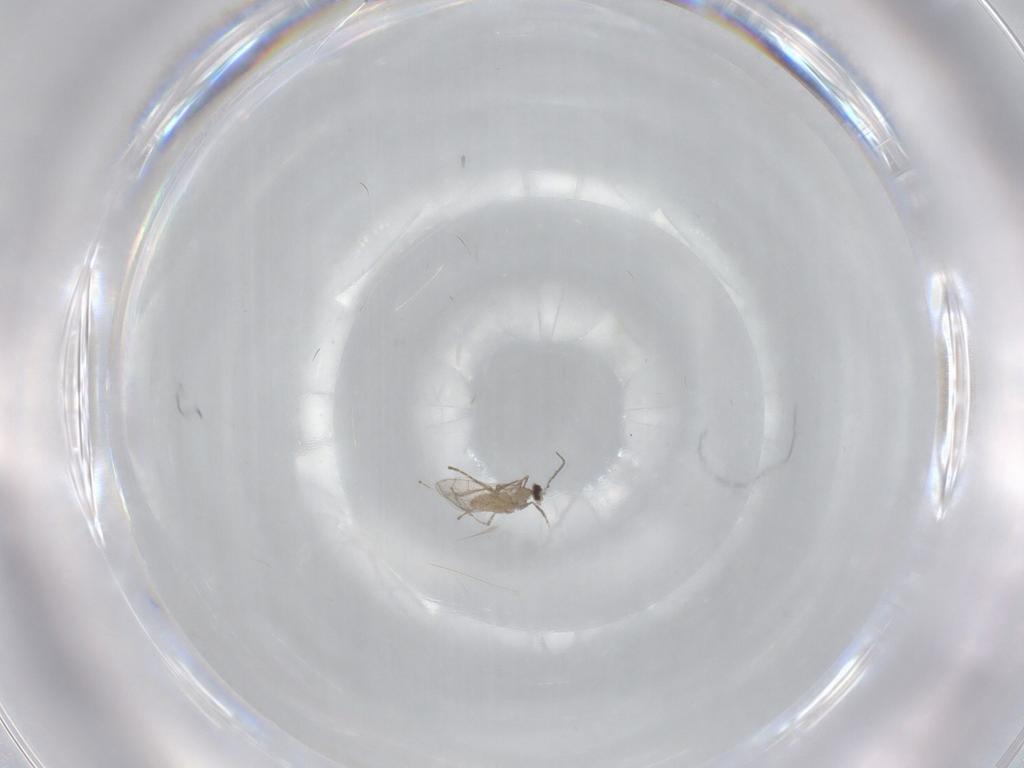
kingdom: Animalia
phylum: Arthropoda
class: Insecta
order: Diptera
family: Cecidomyiidae
